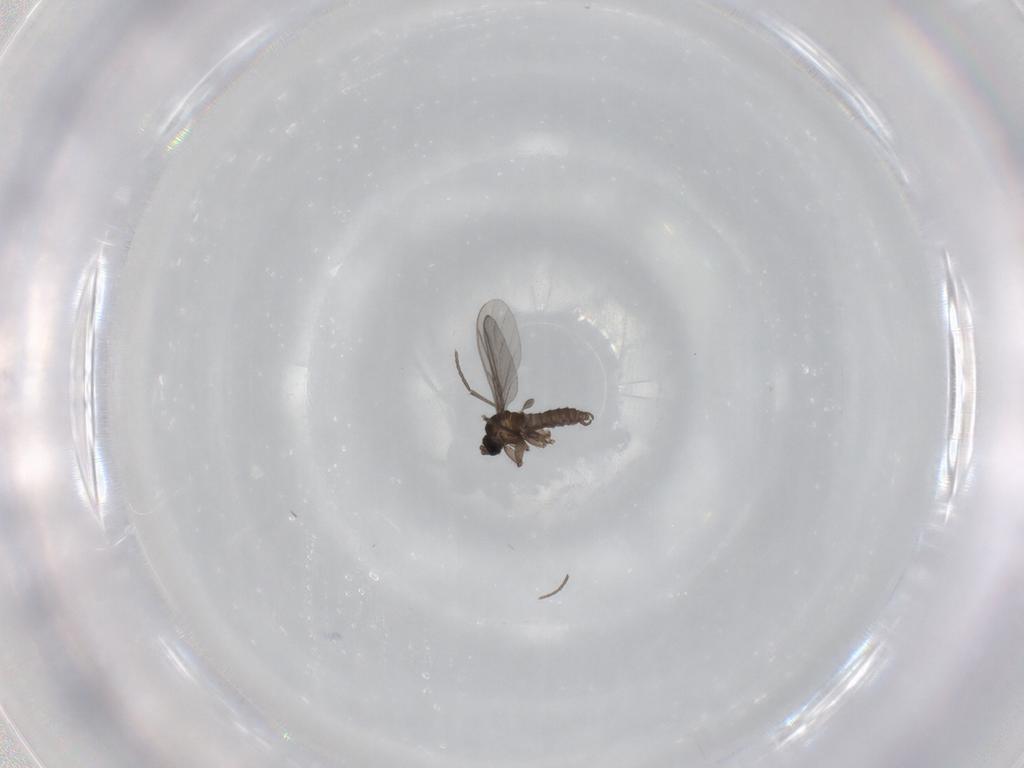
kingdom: Animalia
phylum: Arthropoda
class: Insecta
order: Diptera
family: Sciaridae
